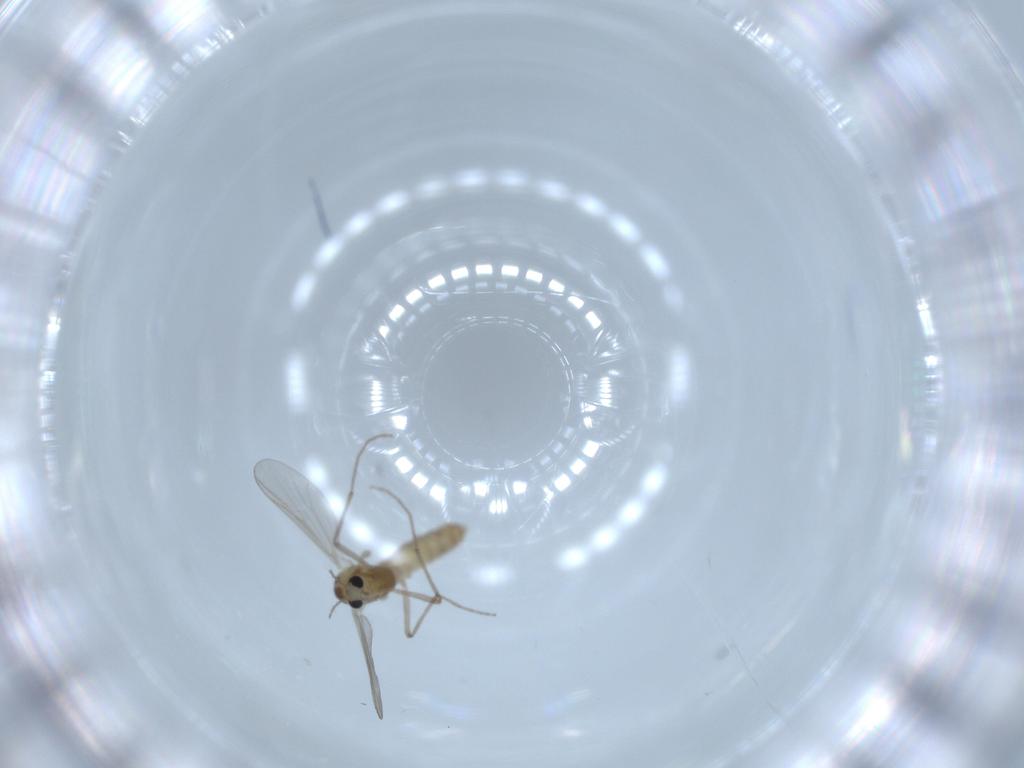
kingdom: Animalia
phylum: Arthropoda
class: Insecta
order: Diptera
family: Chironomidae
